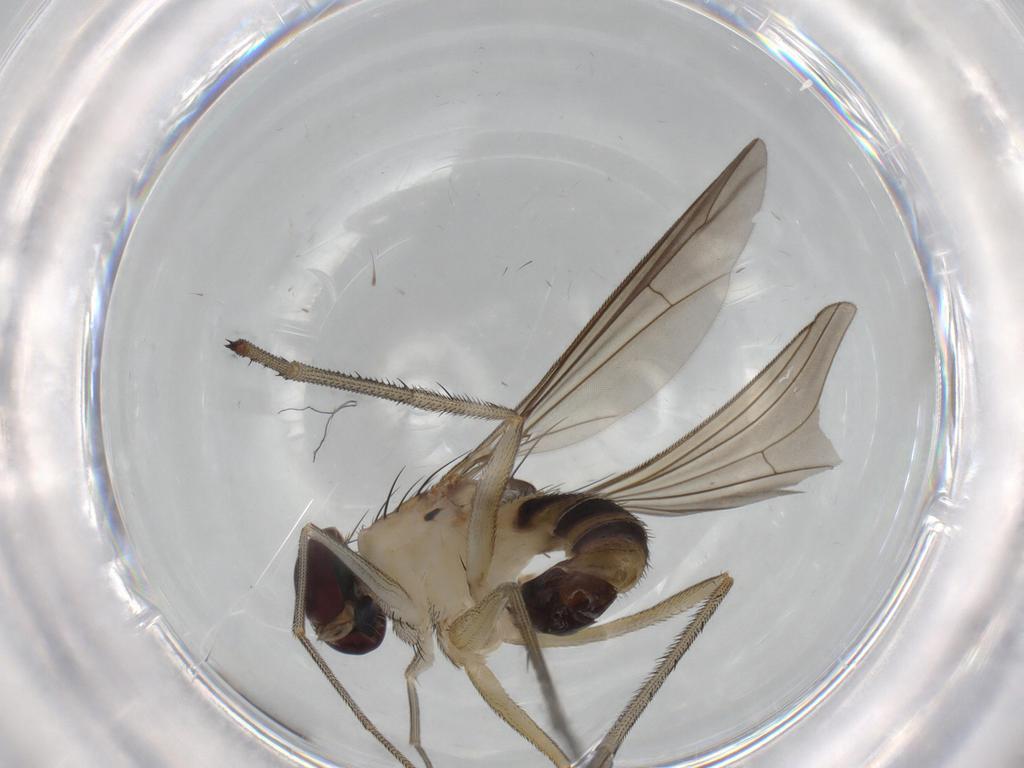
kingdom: Animalia
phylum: Arthropoda
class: Insecta
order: Diptera
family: Chironomidae
